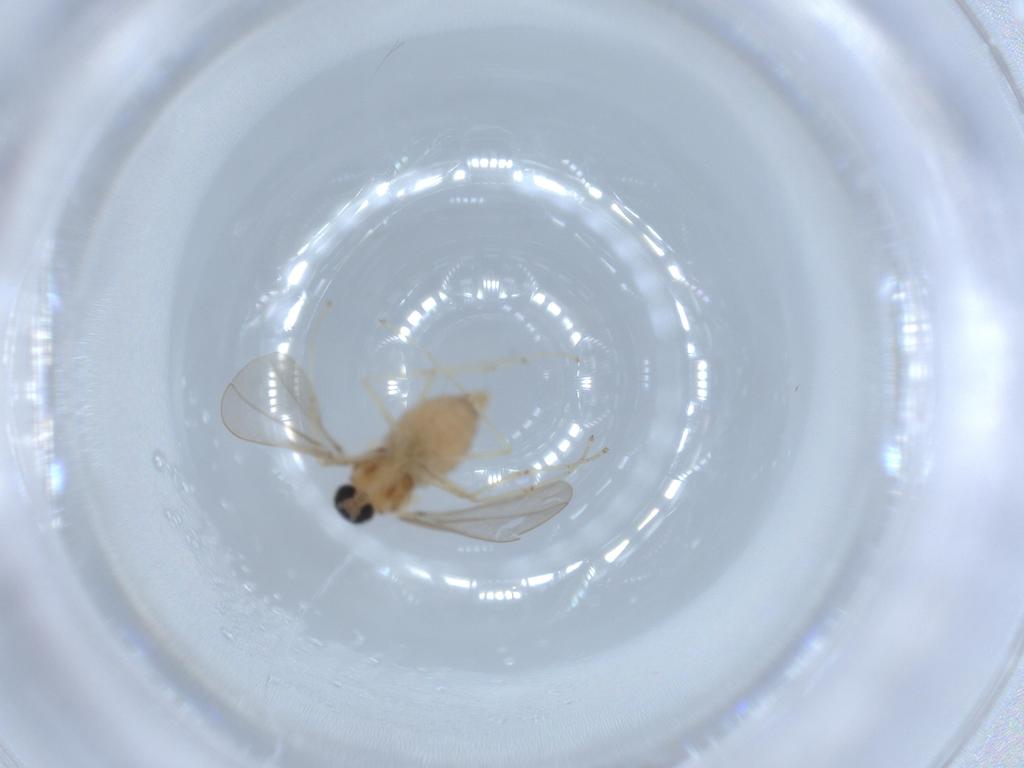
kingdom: Animalia
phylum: Arthropoda
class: Insecta
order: Diptera
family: Cecidomyiidae
